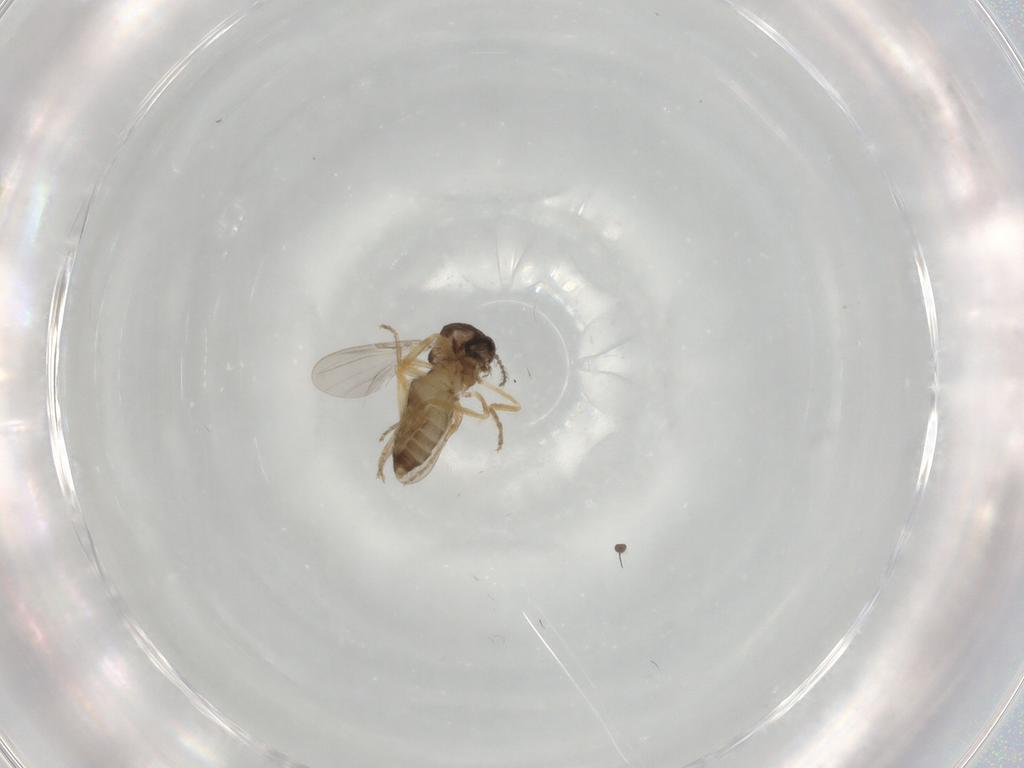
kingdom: Animalia
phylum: Arthropoda
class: Insecta
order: Diptera
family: Ceratopogonidae
